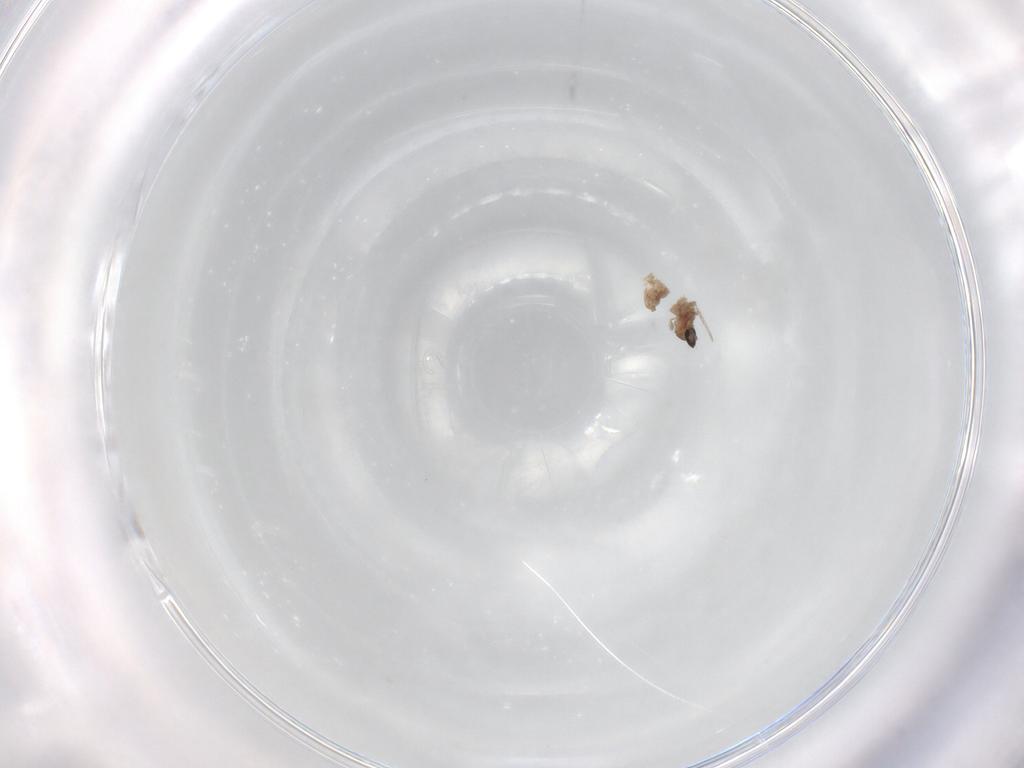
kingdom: Animalia
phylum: Arthropoda
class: Insecta
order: Diptera
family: Cecidomyiidae
